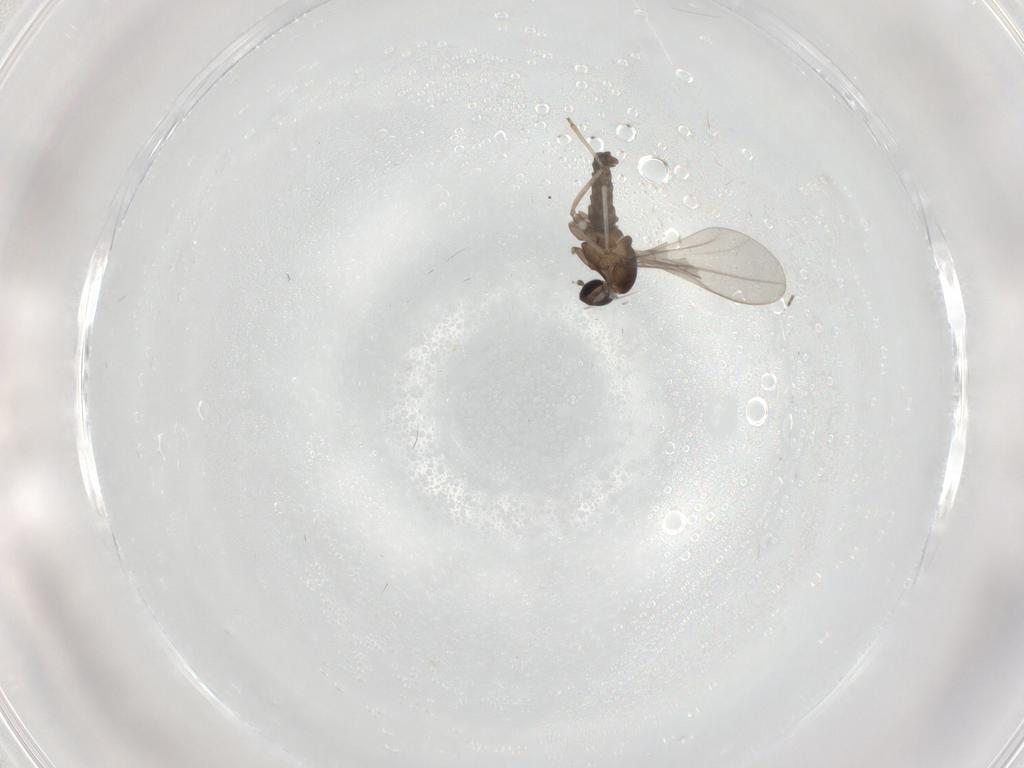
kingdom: Animalia
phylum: Arthropoda
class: Insecta
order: Diptera
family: Cecidomyiidae
